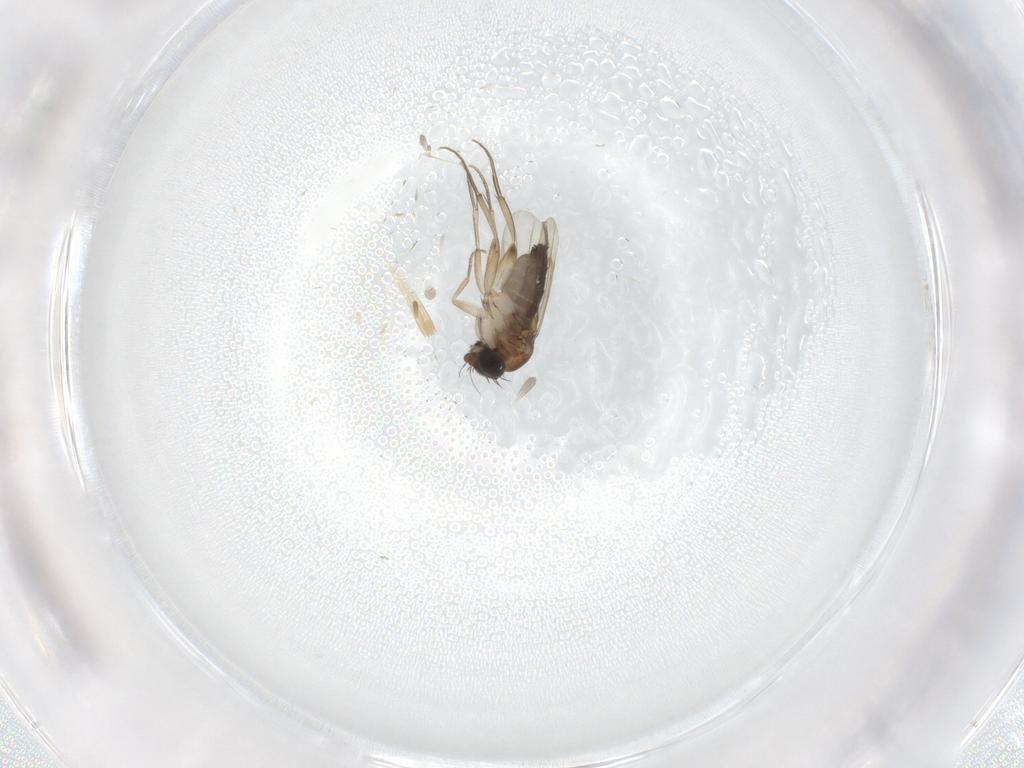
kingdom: Animalia
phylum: Arthropoda
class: Insecta
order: Diptera
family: Phoridae
